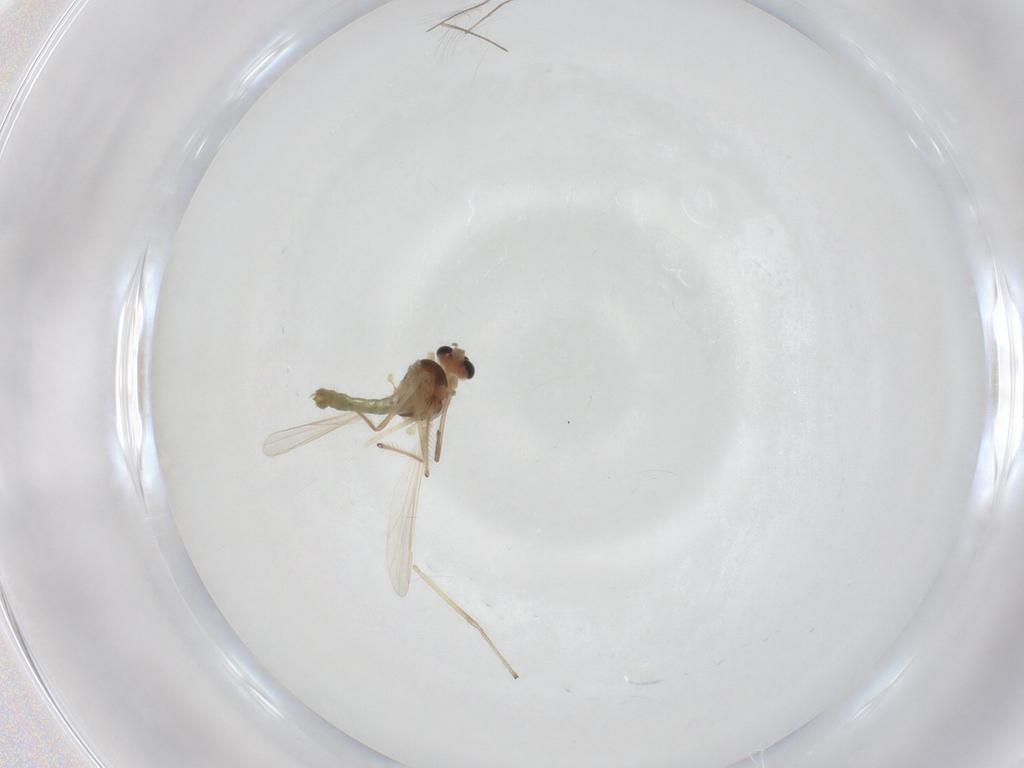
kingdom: Animalia
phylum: Arthropoda
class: Insecta
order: Diptera
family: Chironomidae
